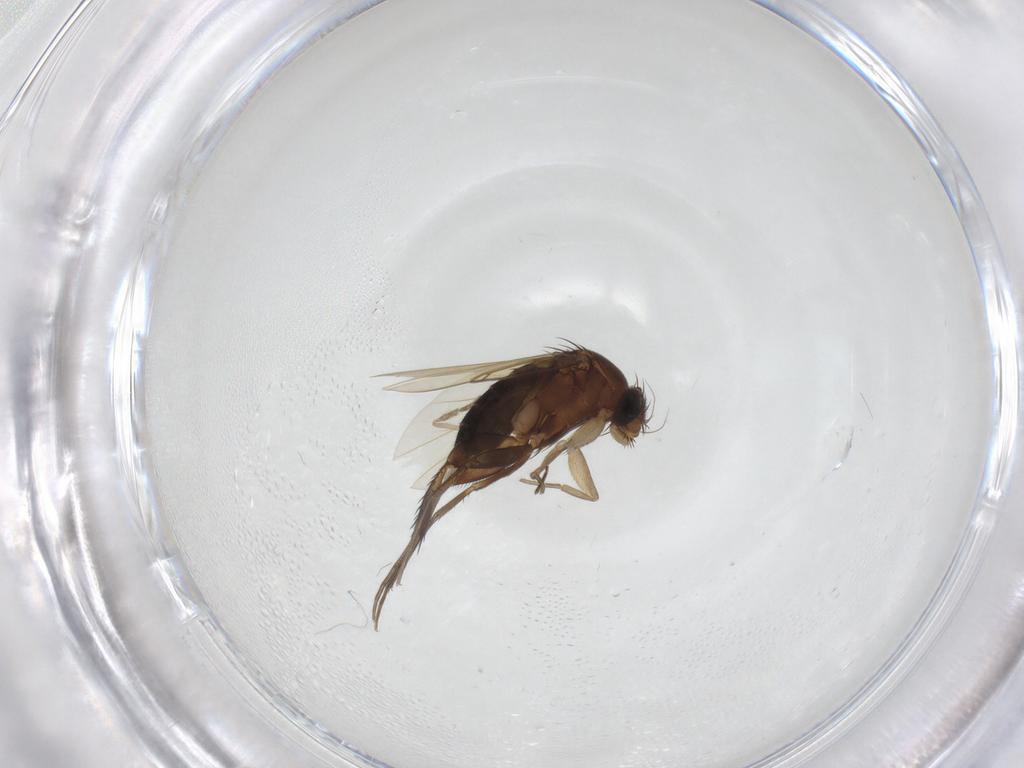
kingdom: Animalia
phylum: Arthropoda
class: Insecta
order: Diptera
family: Phoridae
